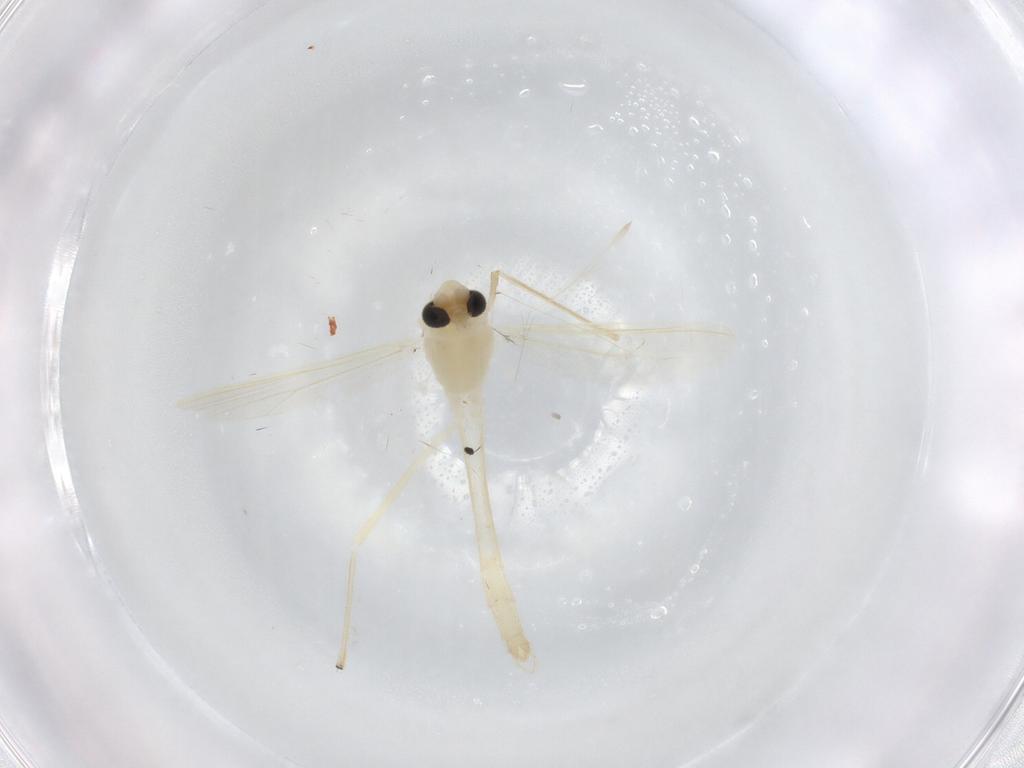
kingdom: Animalia
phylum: Arthropoda
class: Insecta
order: Diptera
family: Chironomidae
